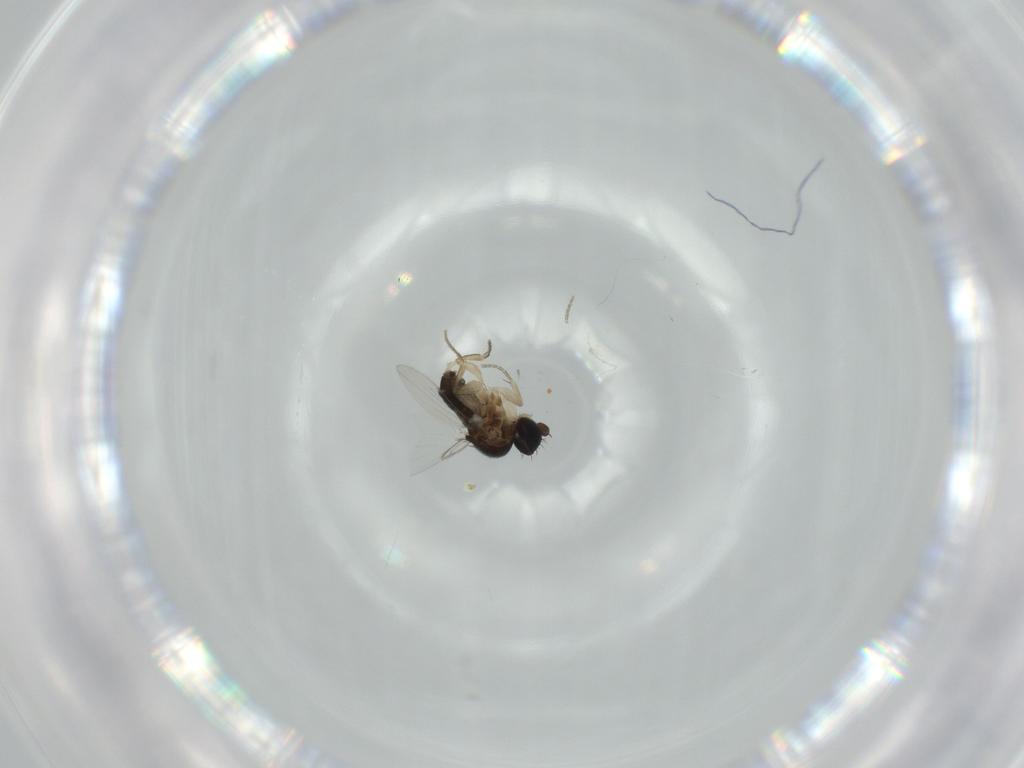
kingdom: Animalia
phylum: Arthropoda
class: Insecta
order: Diptera
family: Phoridae
